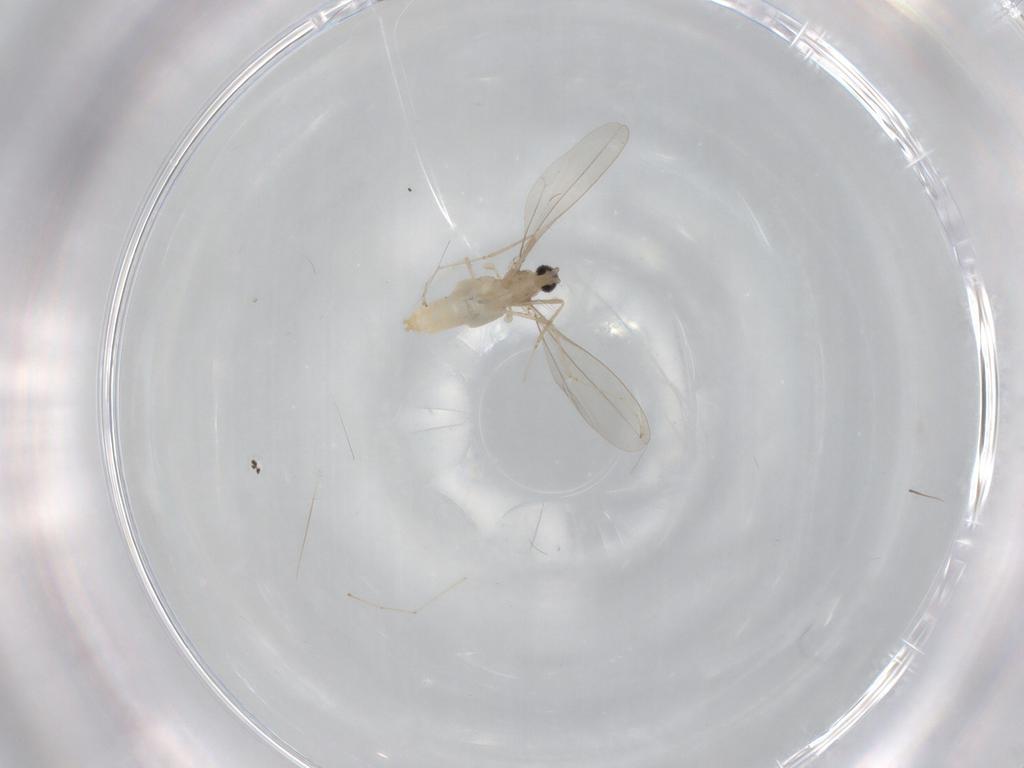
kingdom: Animalia
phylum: Arthropoda
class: Insecta
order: Diptera
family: Cecidomyiidae
